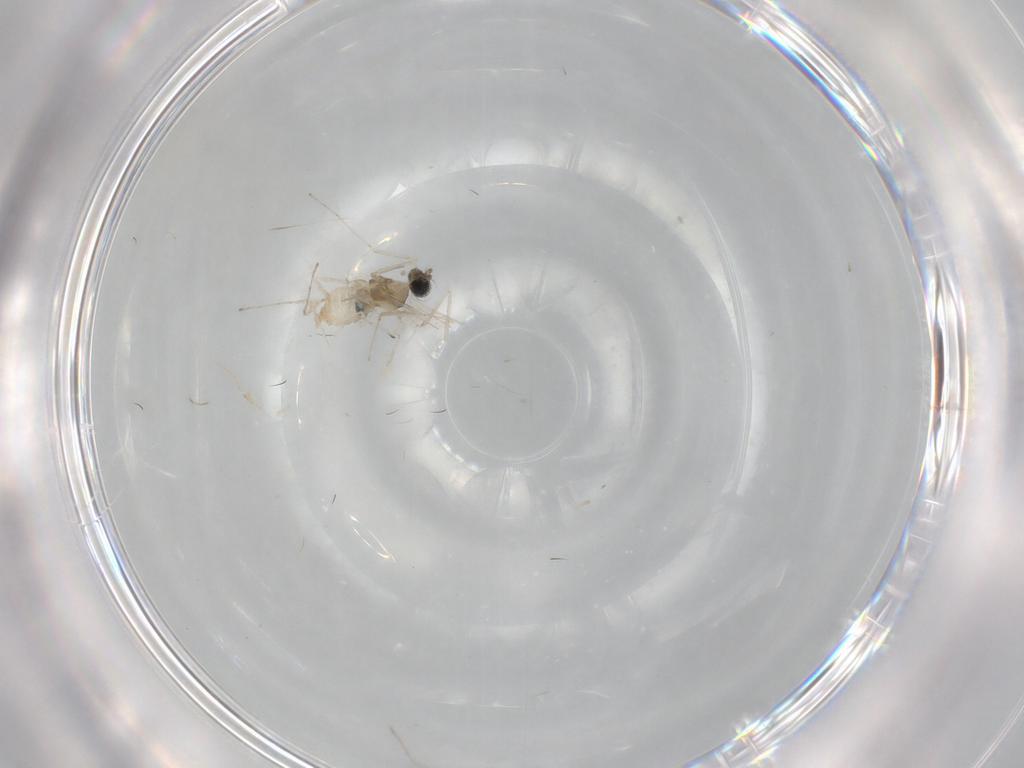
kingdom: Animalia
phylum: Arthropoda
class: Insecta
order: Diptera
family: Cecidomyiidae
